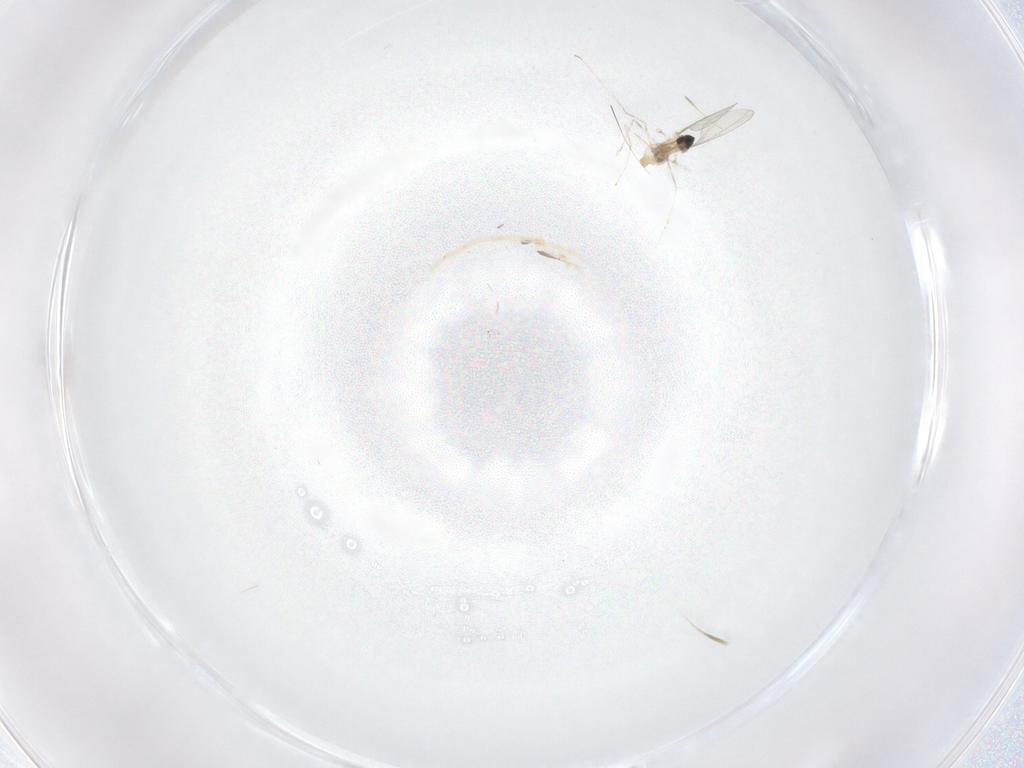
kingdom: Animalia
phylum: Arthropoda
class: Insecta
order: Diptera
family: Cecidomyiidae
